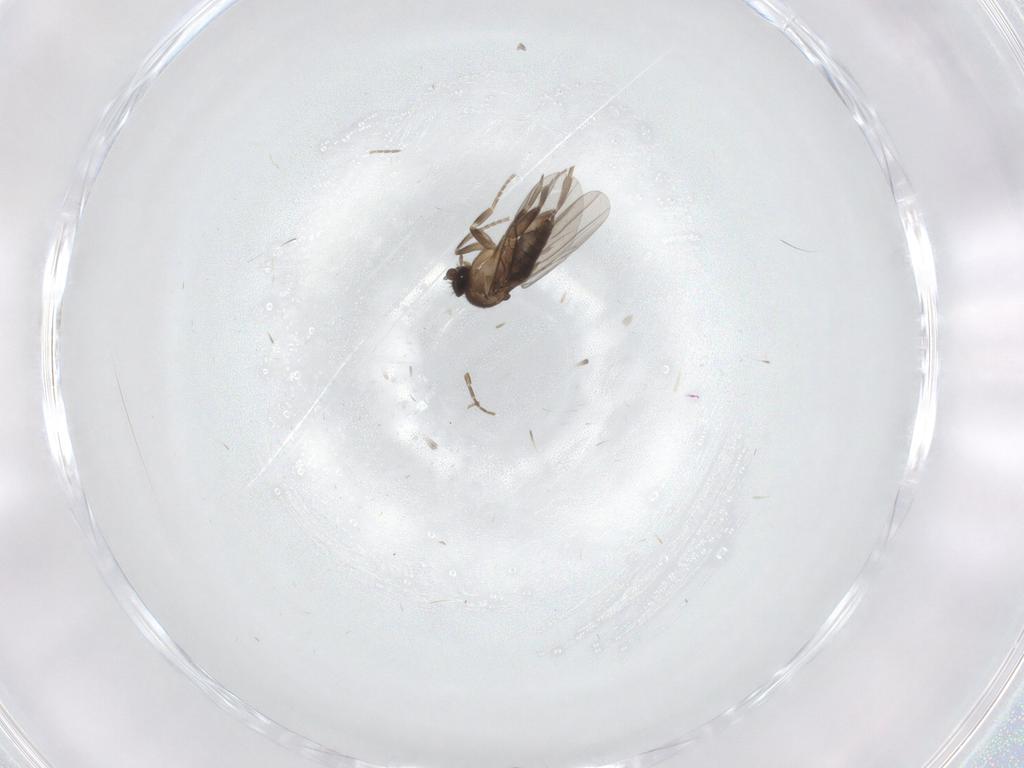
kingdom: Animalia
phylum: Arthropoda
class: Insecta
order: Diptera
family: Phoridae
